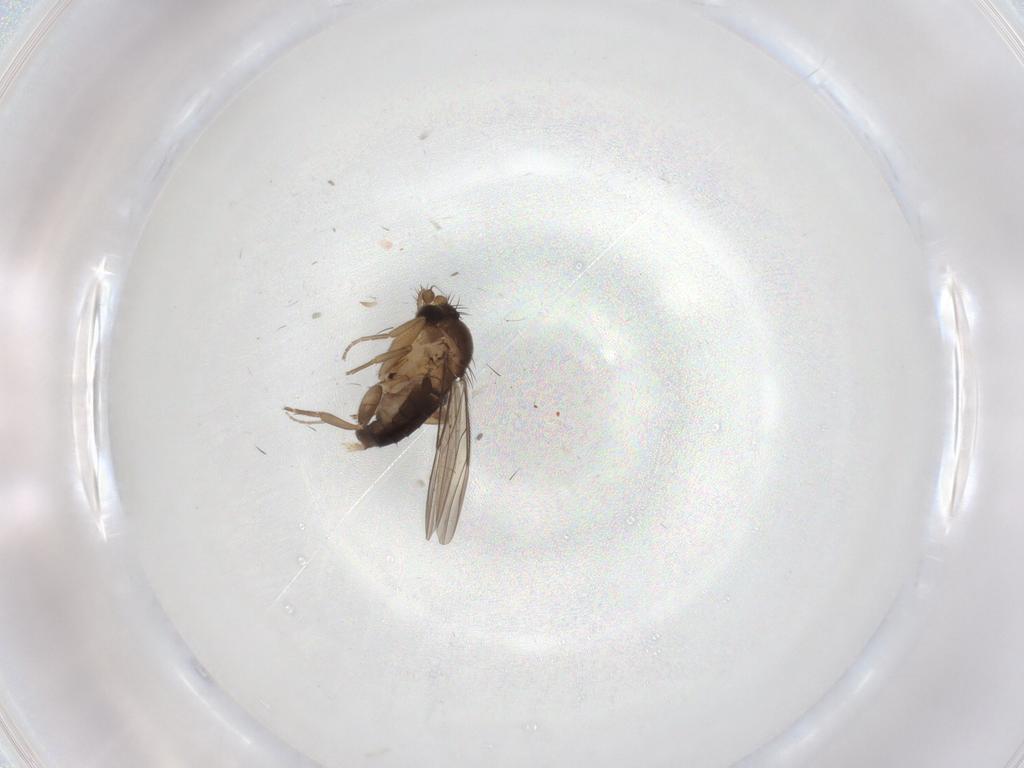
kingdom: Animalia
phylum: Arthropoda
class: Insecta
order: Diptera
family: Phoridae
